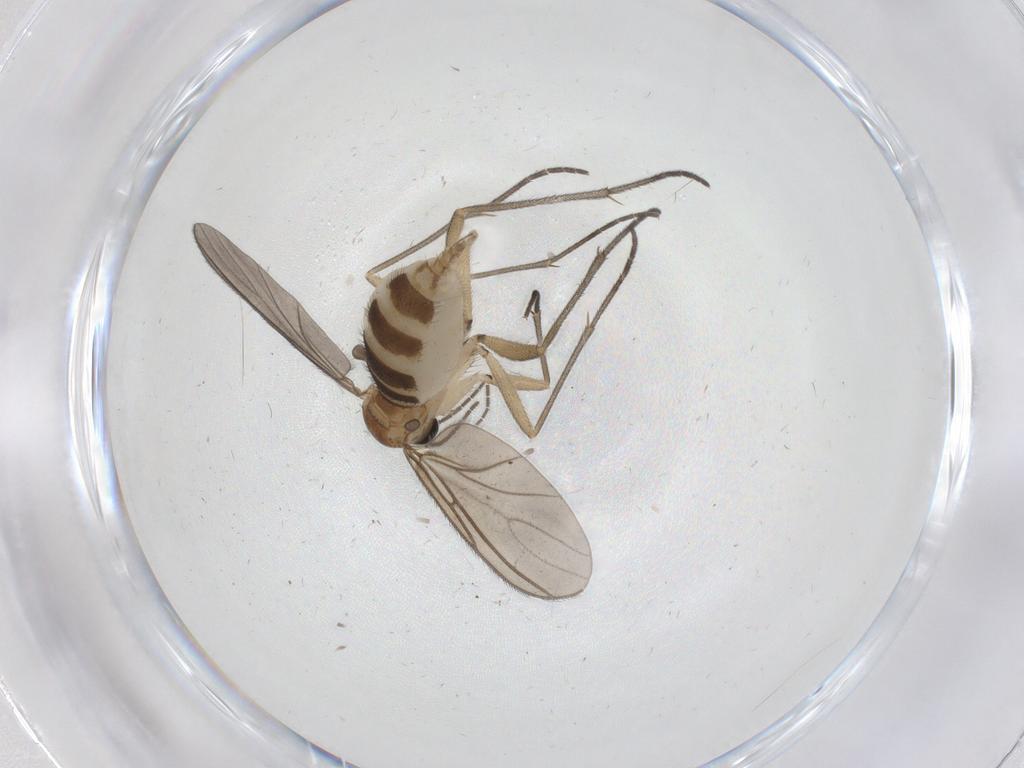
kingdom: Animalia
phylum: Arthropoda
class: Insecta
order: Diptera
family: Sciaridae
